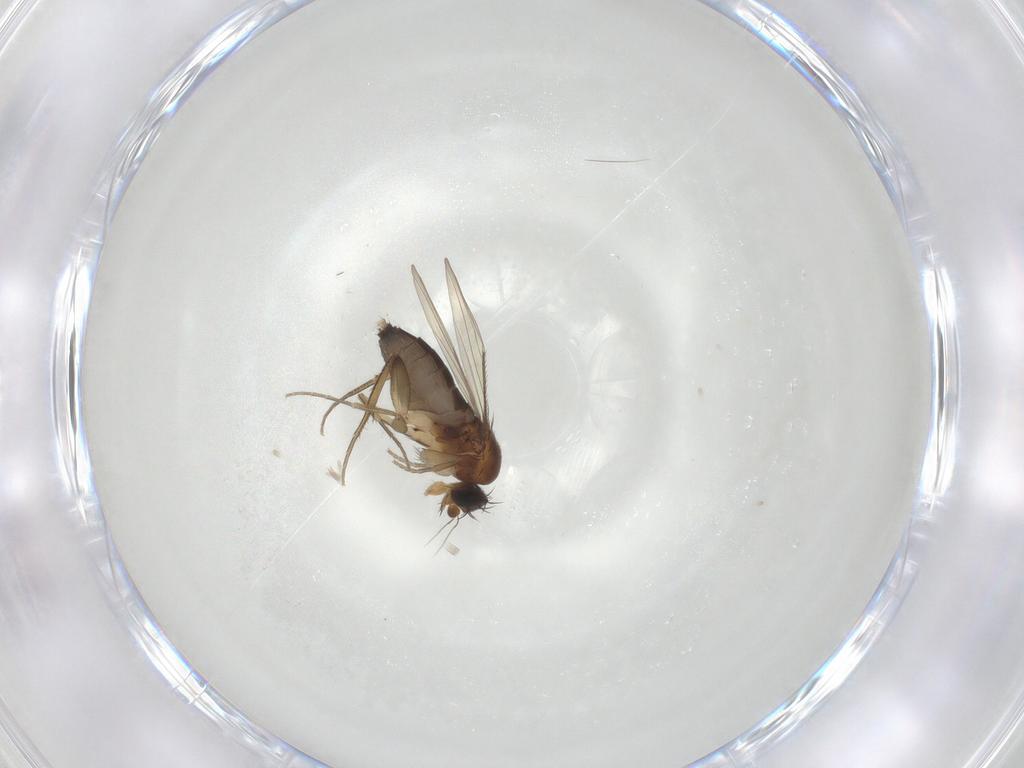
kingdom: Animalia
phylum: Arthropoda
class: Insecta
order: Diptera
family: Phoridae
